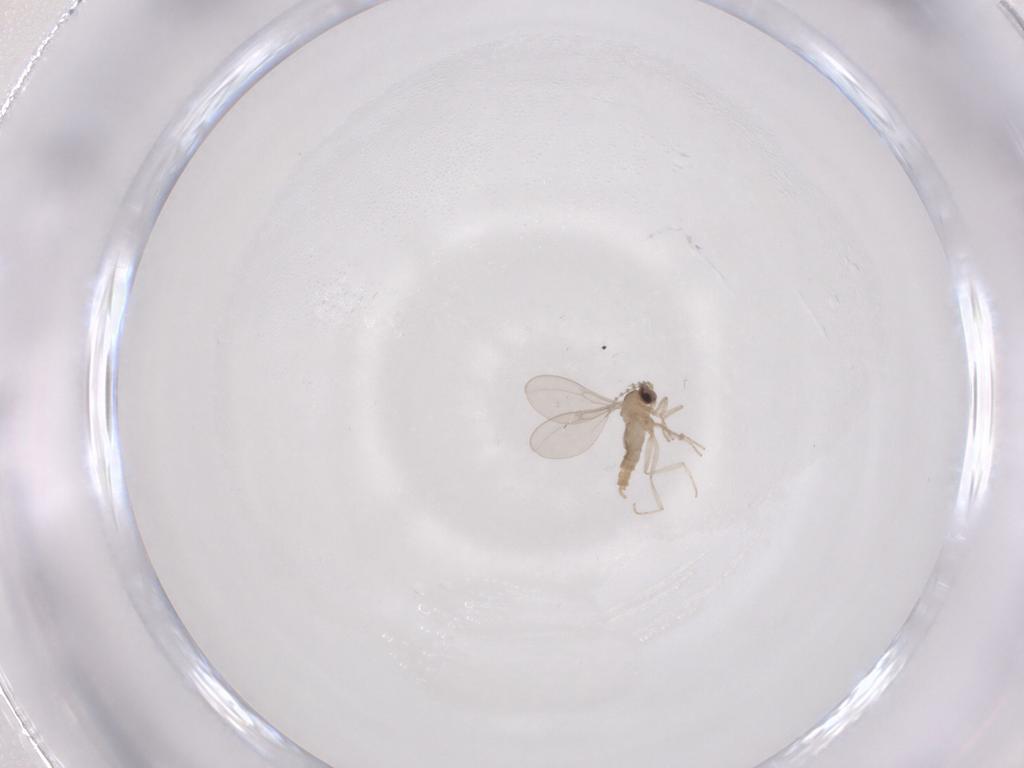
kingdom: Animalia
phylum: Arthropoda
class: Insecta
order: Diptera
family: Cecidomyiidae
